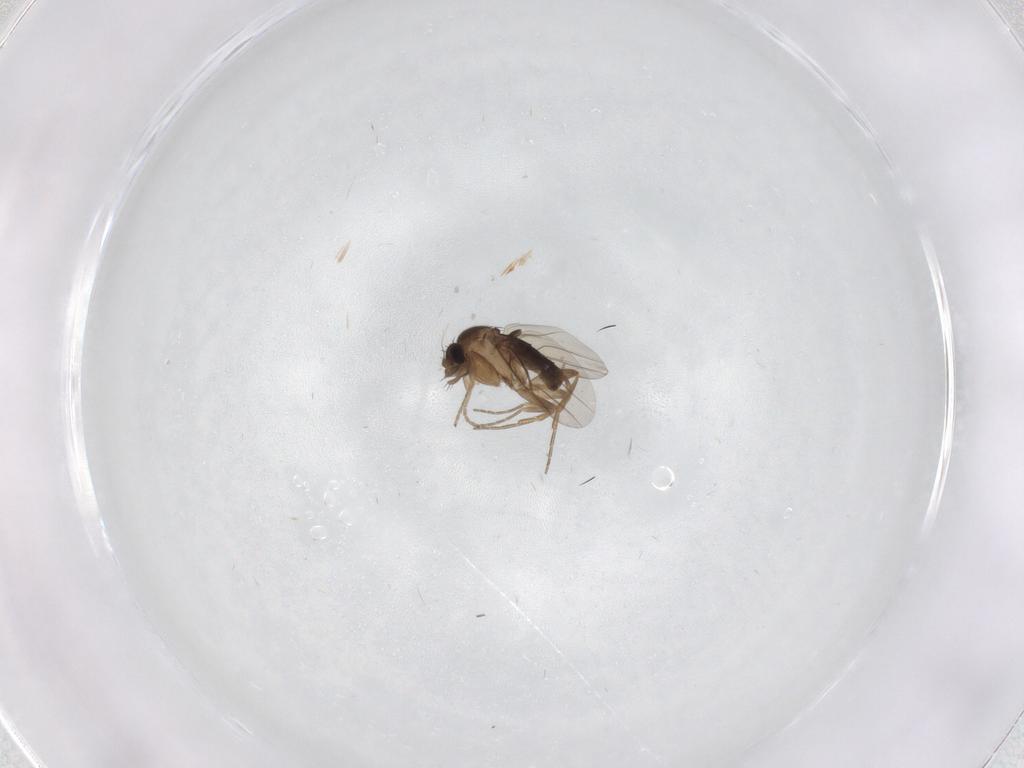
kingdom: Animalia
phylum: Arthropoda
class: Insecta
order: Diptera
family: Phoridae
